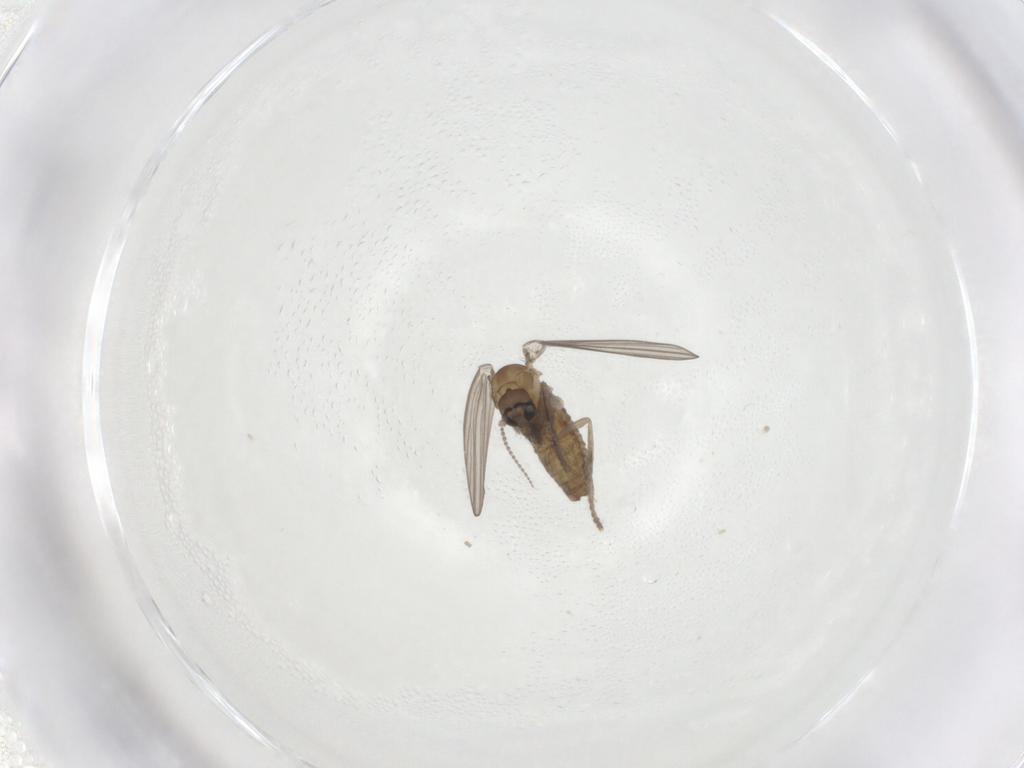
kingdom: Animalia
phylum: Arthropoda
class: Insecta
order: Diptera
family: Psychodidae
